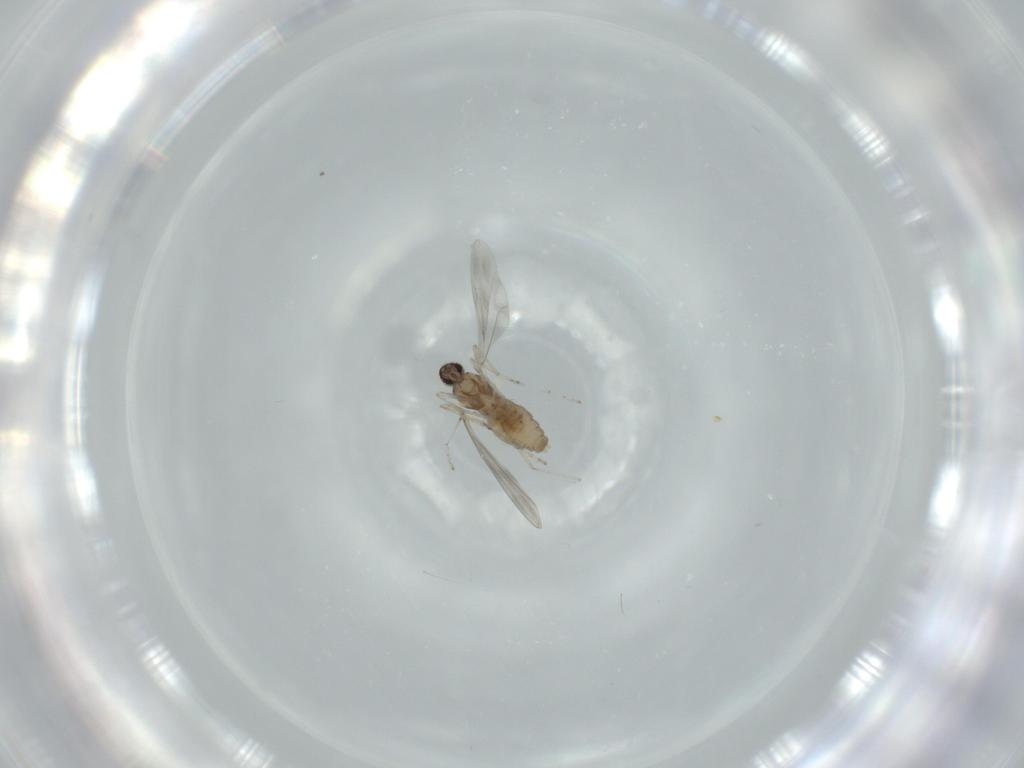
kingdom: Animalia
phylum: Arthropoda
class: Insecta
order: Diptera
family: Cecidomyiidae
